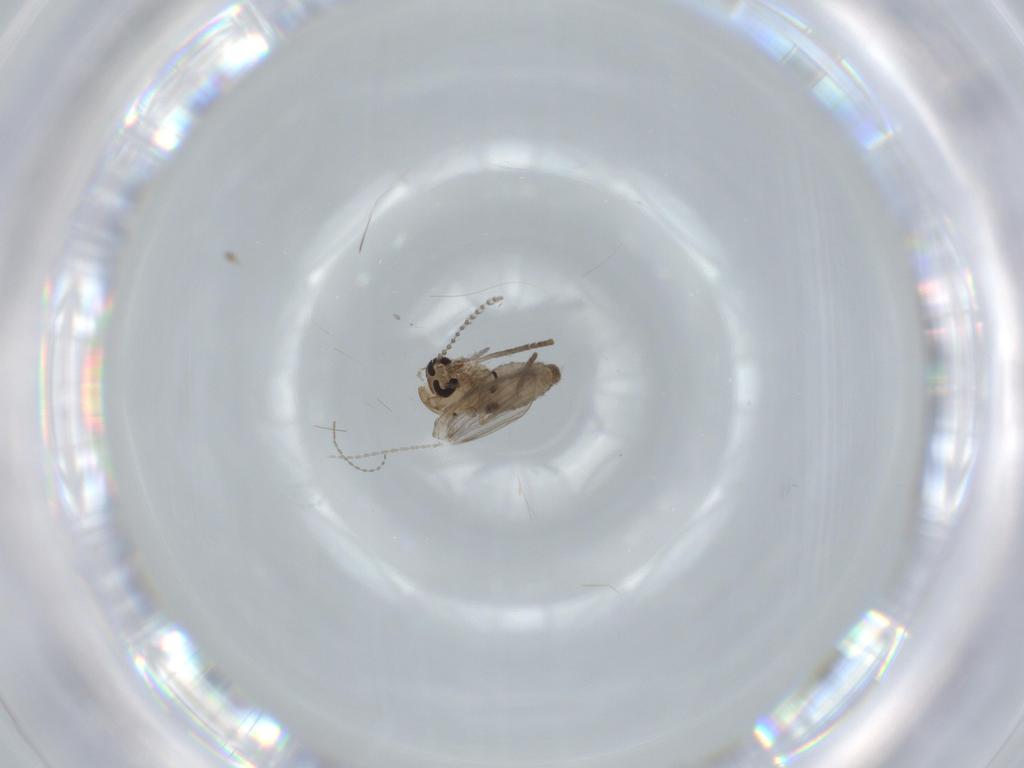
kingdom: Animalia
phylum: Arthropoda
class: Insecta
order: Diptera
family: Psychodidae
